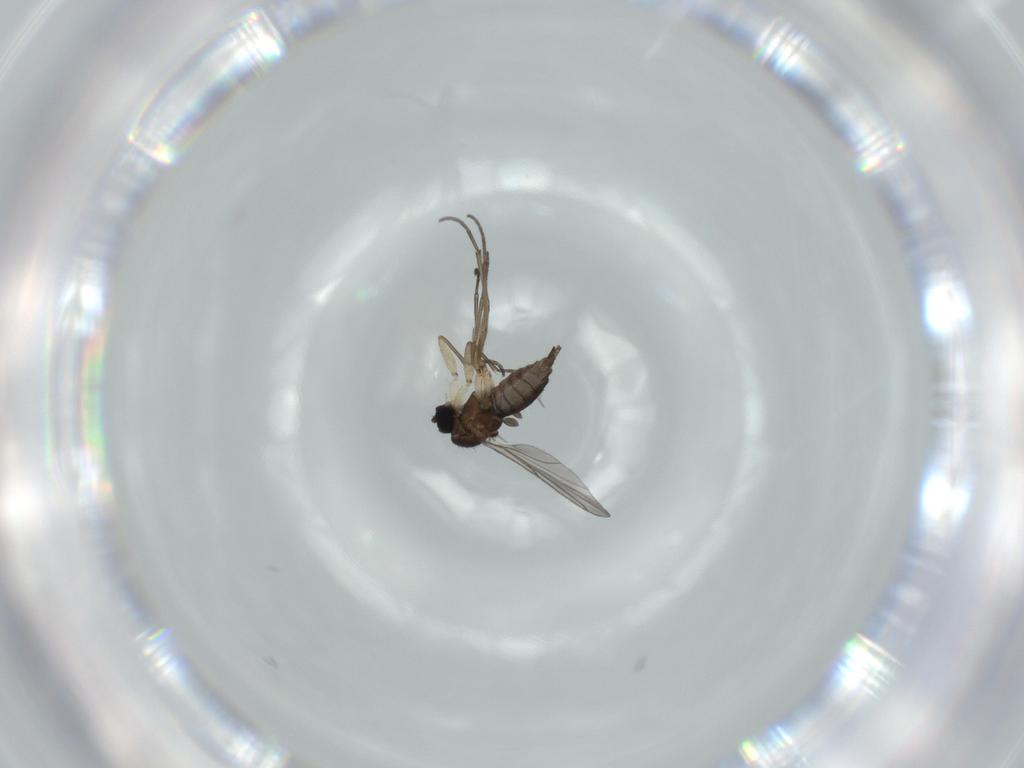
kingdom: Animalia
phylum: Arthropoda
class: Insecta
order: Diptera
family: Sciaridae
